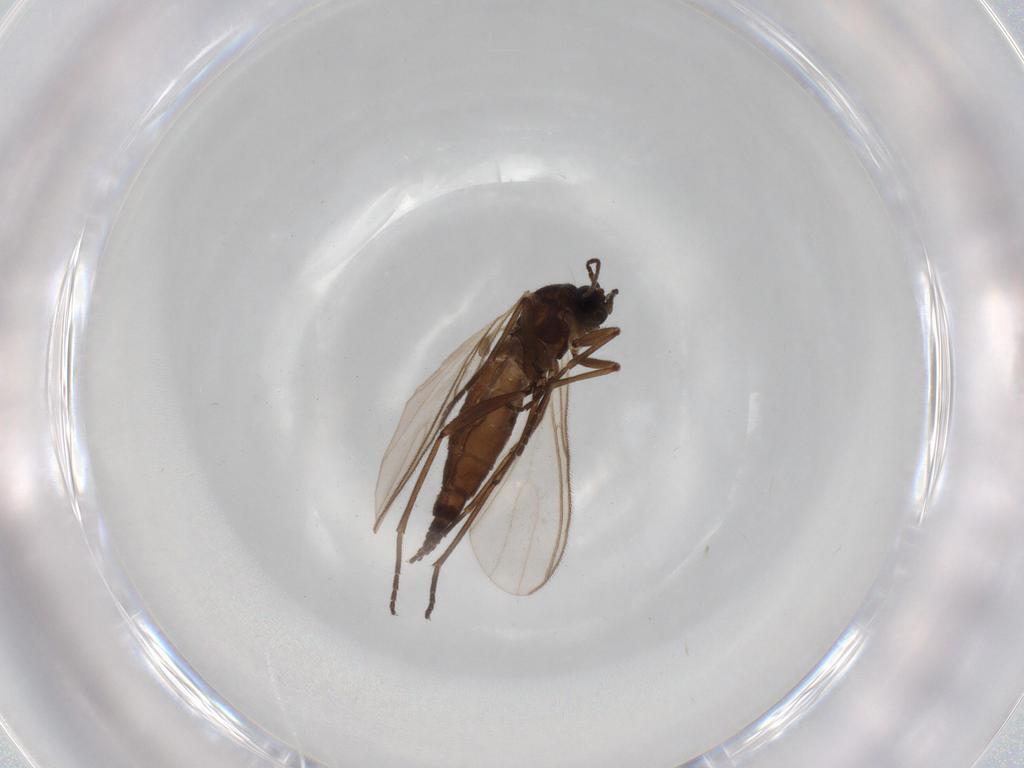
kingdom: Animalia
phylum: Arthropoda
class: Insecta
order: Diptera
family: Sciaridae
